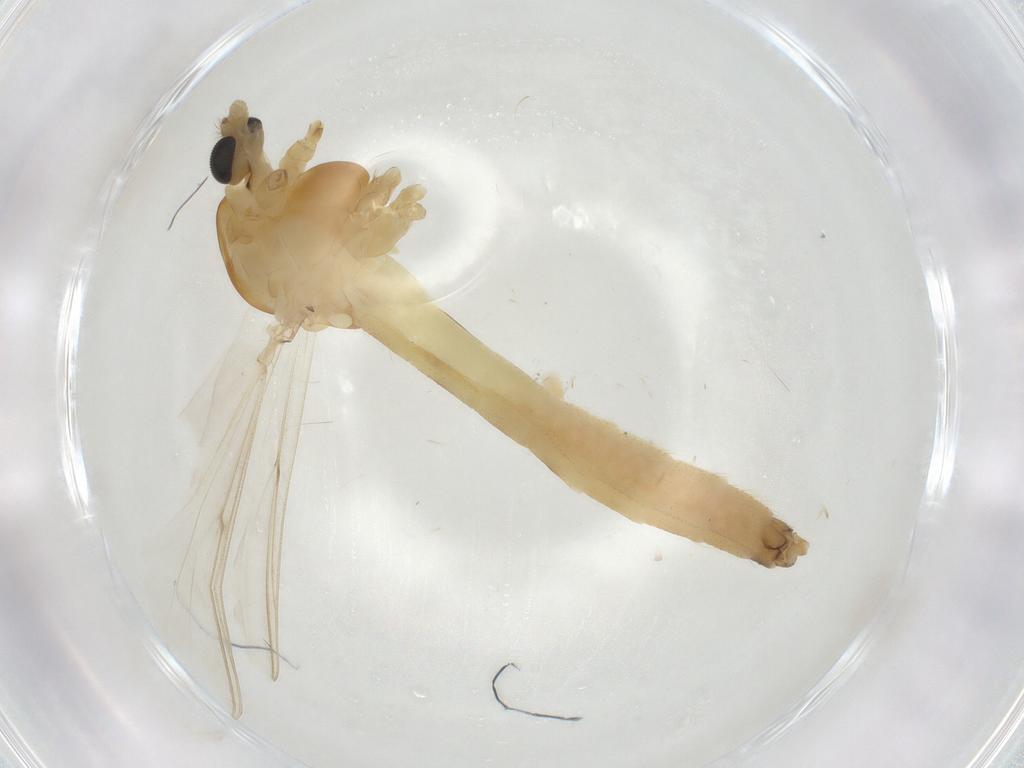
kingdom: Animalia
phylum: Arthropoda
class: Insecta
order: Diptera
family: Chironomidae
